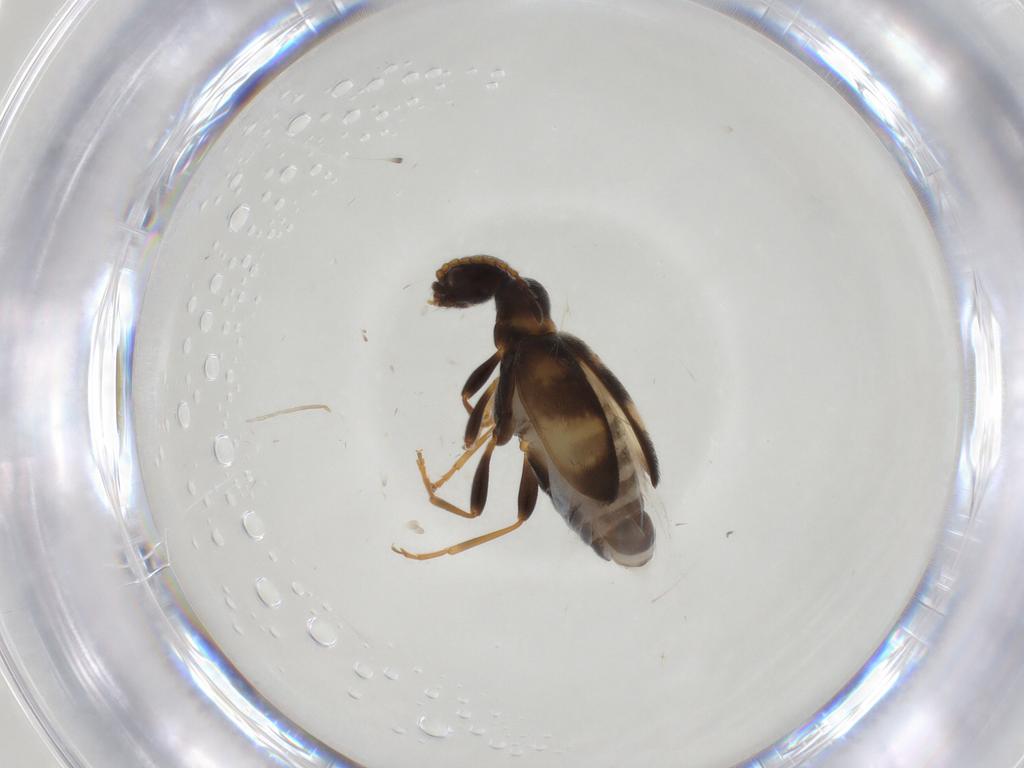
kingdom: Animalia
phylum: Arthropoda
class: Insecta
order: Coleoptera
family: Anthicidae
